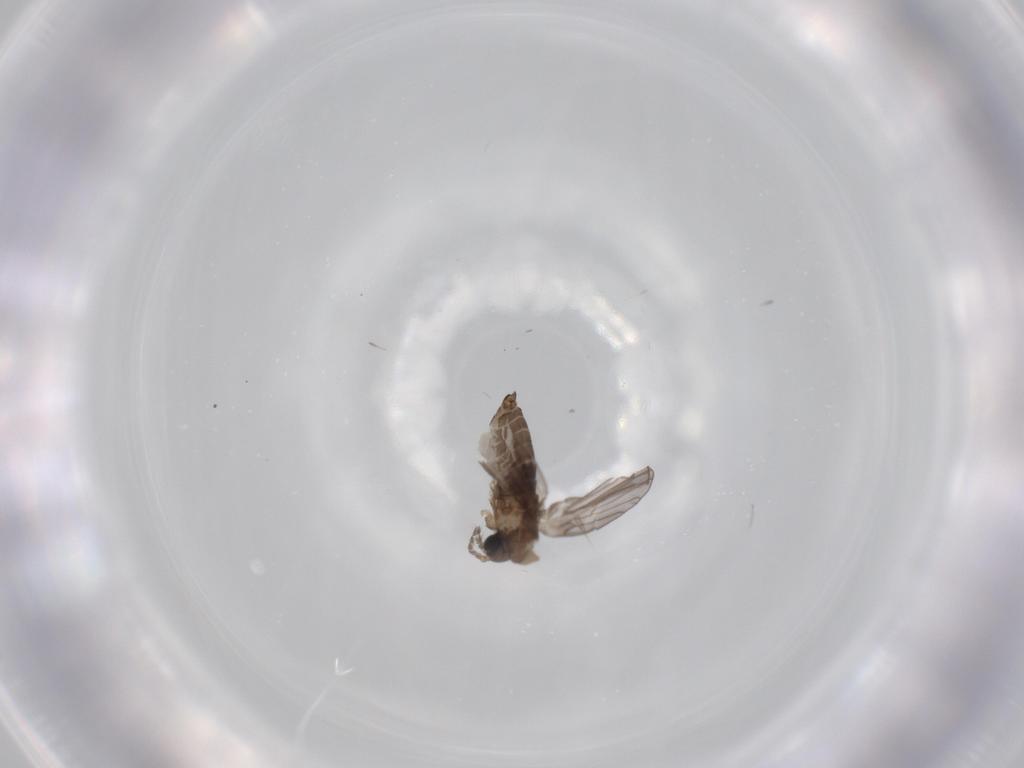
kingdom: Animalia
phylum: Arthropoda
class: Insecta
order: Diptera
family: Psychodidae
